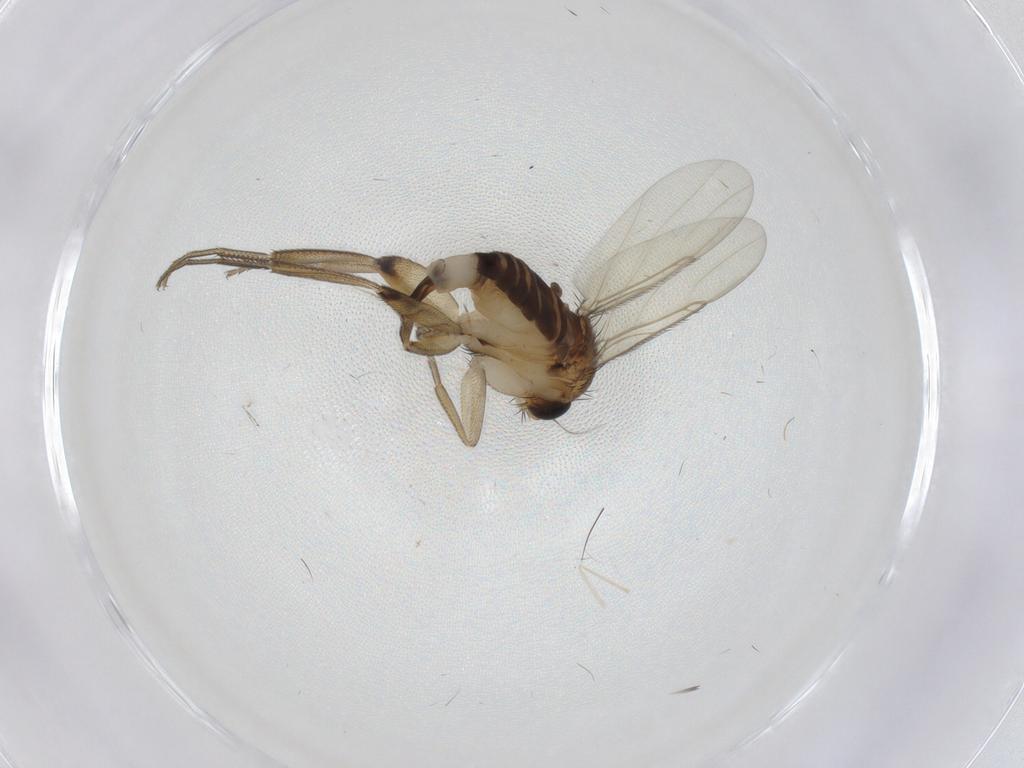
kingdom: Animalia
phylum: Arthropoda
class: Insecta
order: Diptera
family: Phoridae
